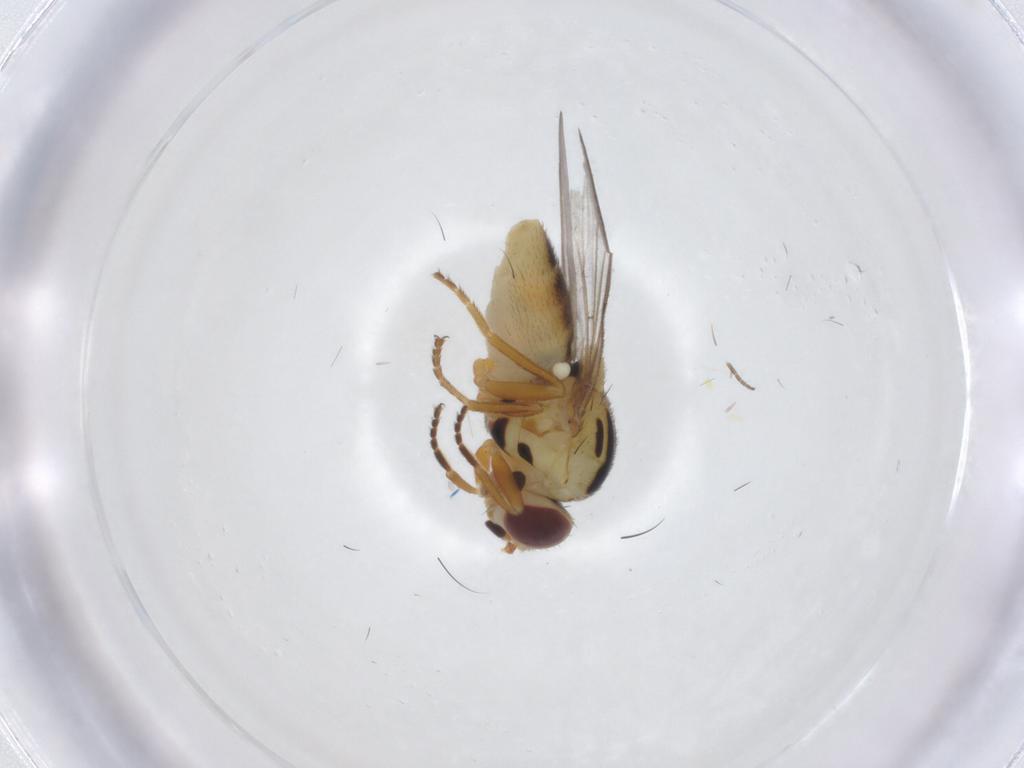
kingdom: Animalia
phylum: Arthropoda
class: Insecta
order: Diptera
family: Chloropidae
